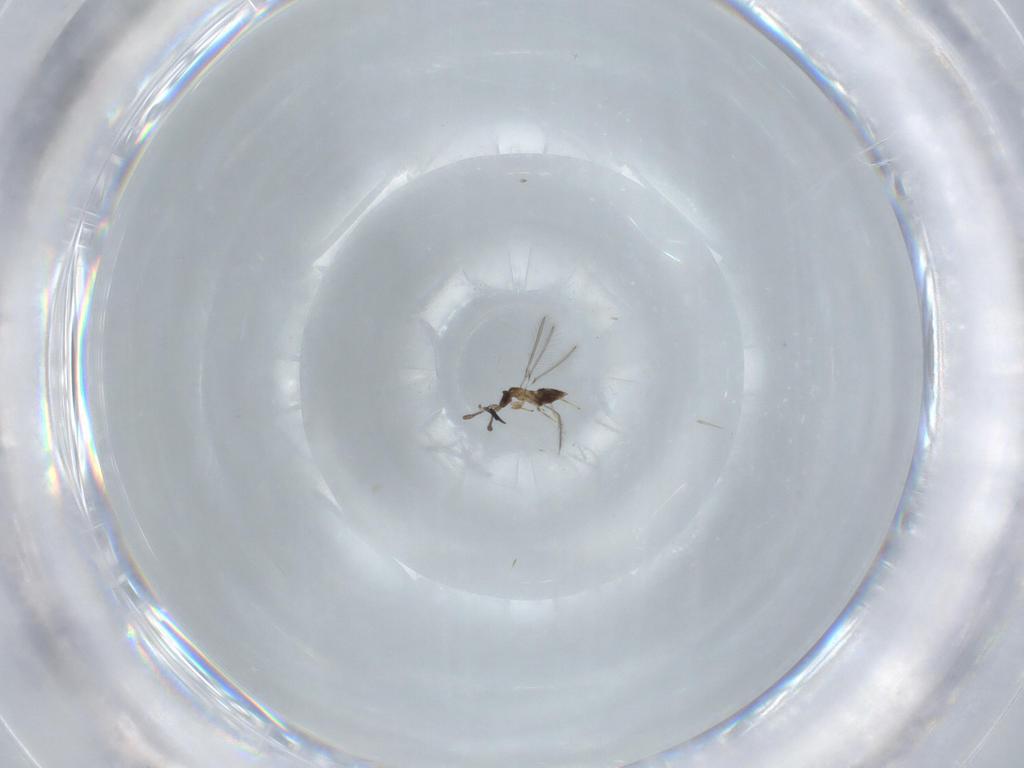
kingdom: Animalia
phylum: Arthropoda
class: Insecta
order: Hymenoptera
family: Formicidae
